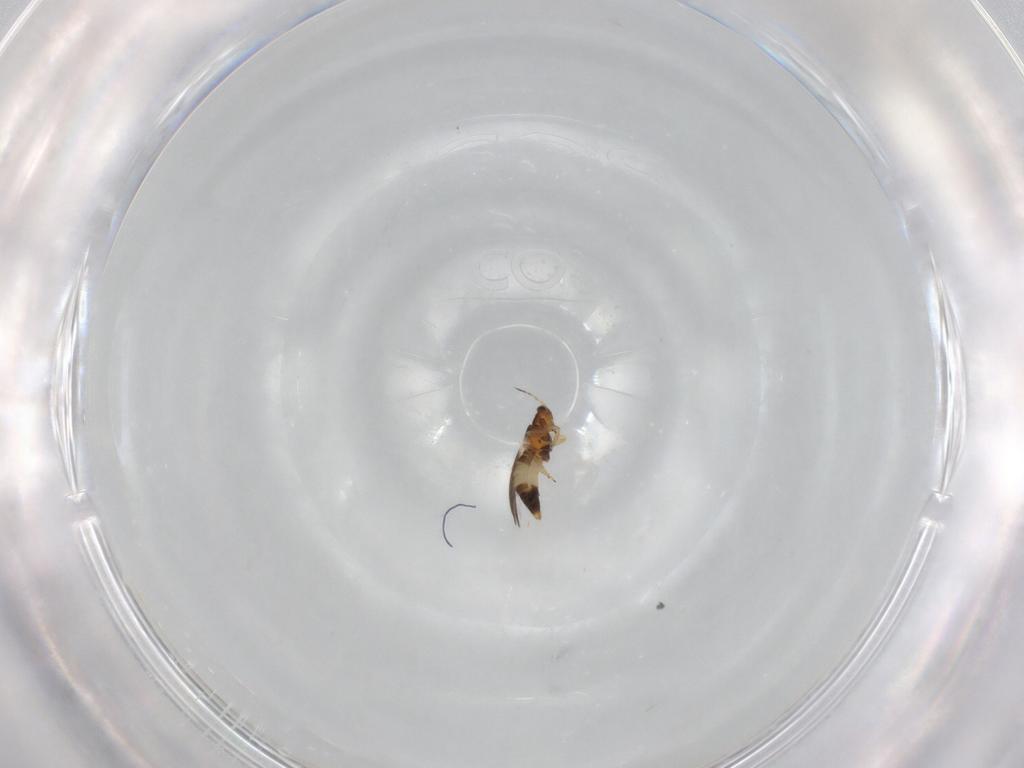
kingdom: Animalia
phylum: Arthropoda
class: Insecta
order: Thysanoptera
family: Thripidae
